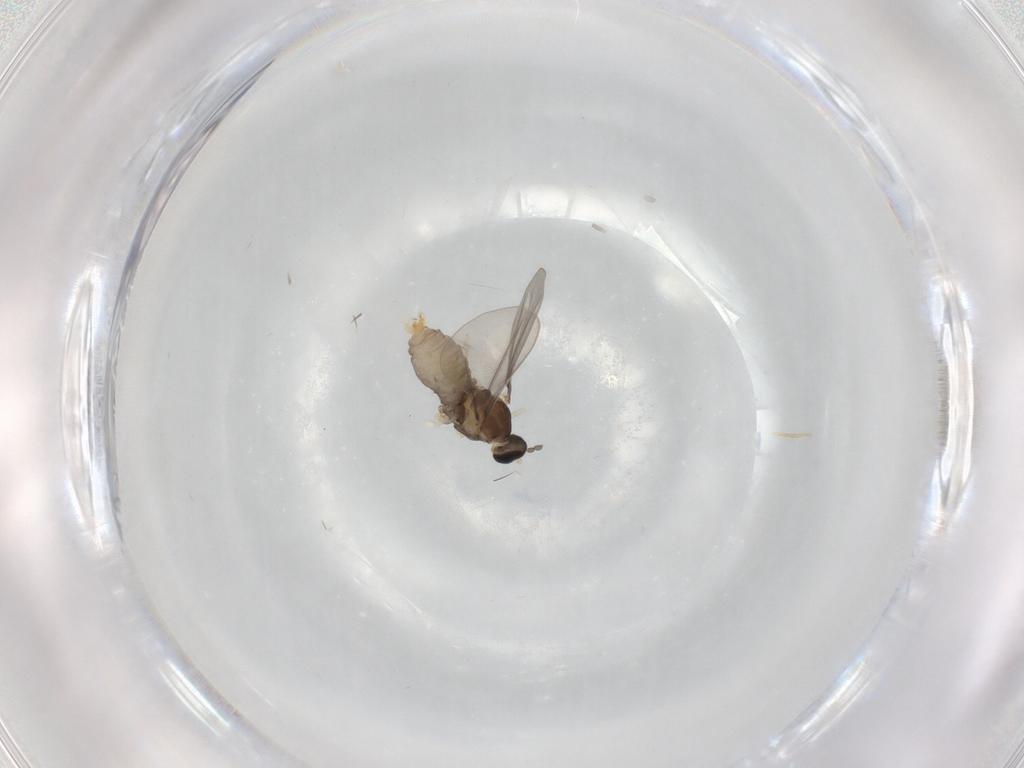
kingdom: Animalia
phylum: Arthropoda
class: Insecta
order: Diptera
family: Cecidomyiidae
